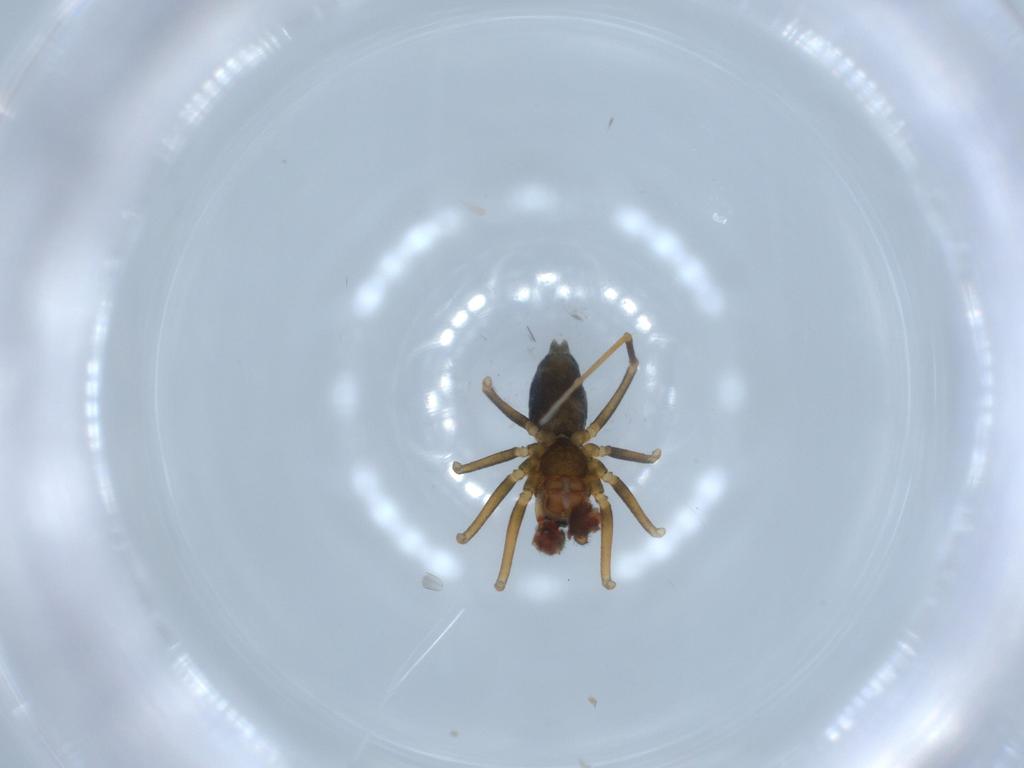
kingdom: Animalia
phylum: Arthropoda
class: Arachnida
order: Araneae
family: Linyphiidae
